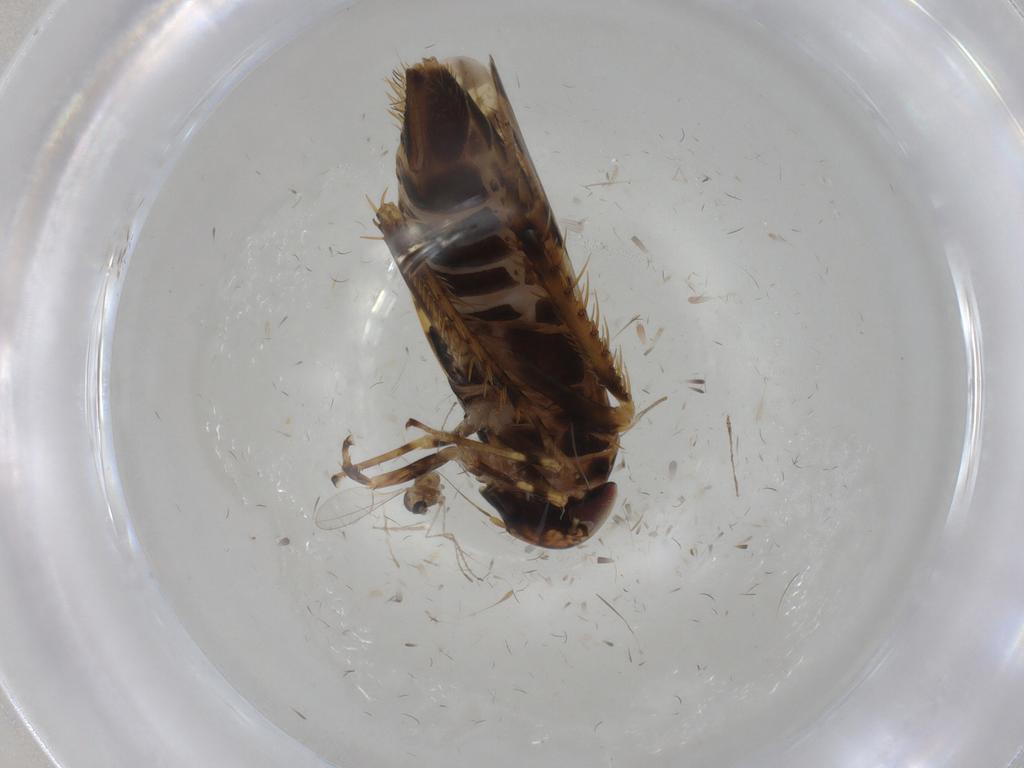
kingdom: Animalia
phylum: Arthropoda
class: Insecta
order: Hemiptera
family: Cicadellidae
